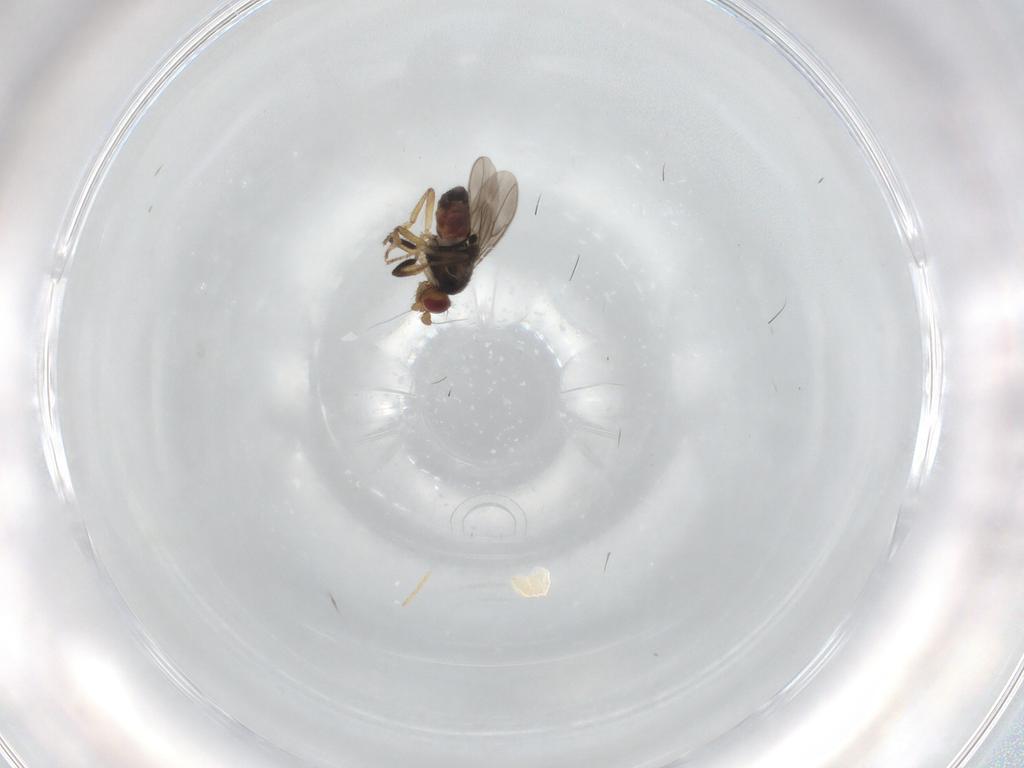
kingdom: Animalia
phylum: Arthropoda
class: Insecta
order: Diptera
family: Sphaeroceridae
